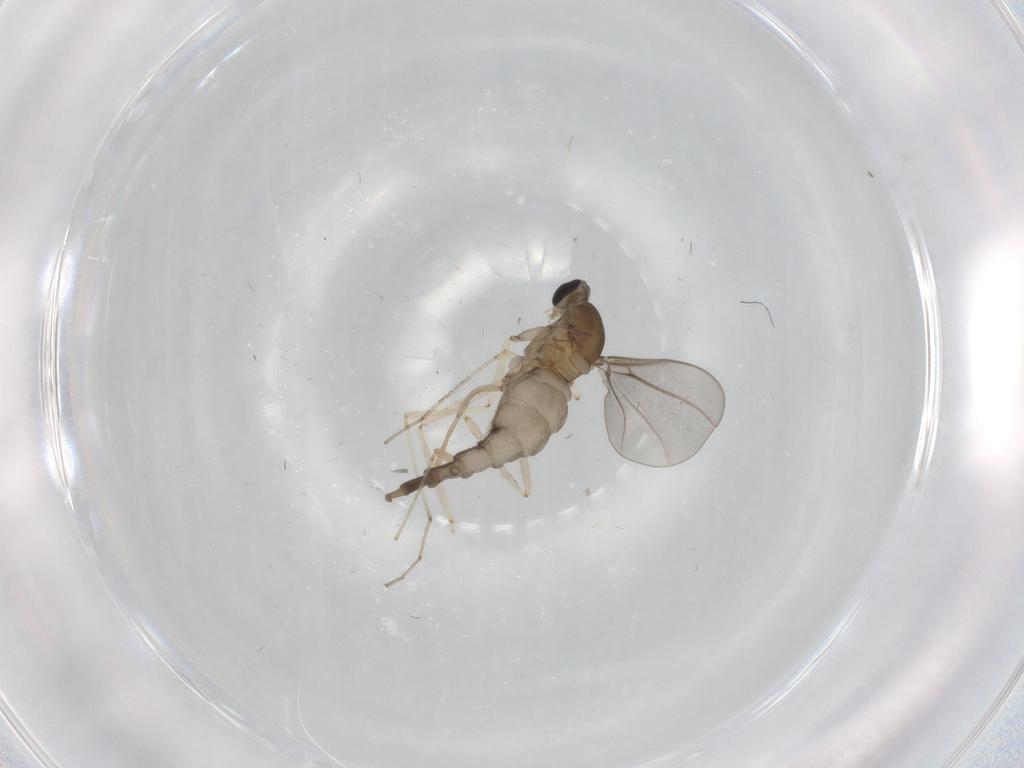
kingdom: Animalia
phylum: Arthropoda
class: Insecta
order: Diptera
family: Cecidomyiidae
